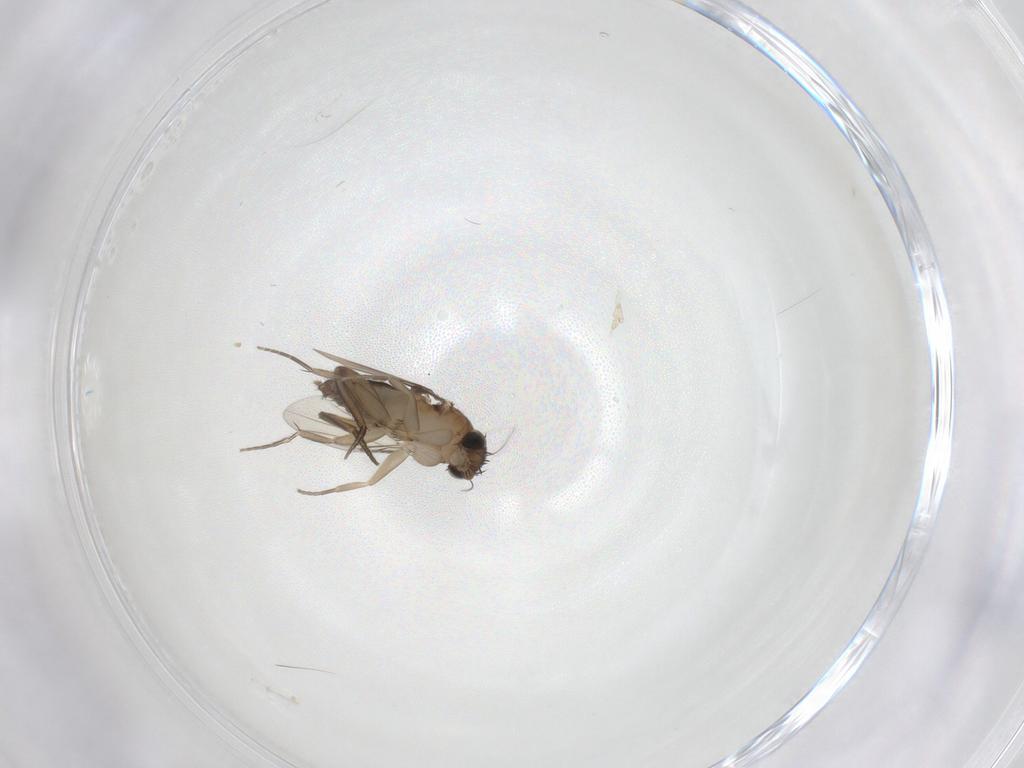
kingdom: Animalia
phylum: Arthropoda
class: Insecta
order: Diptera
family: Phoridae
